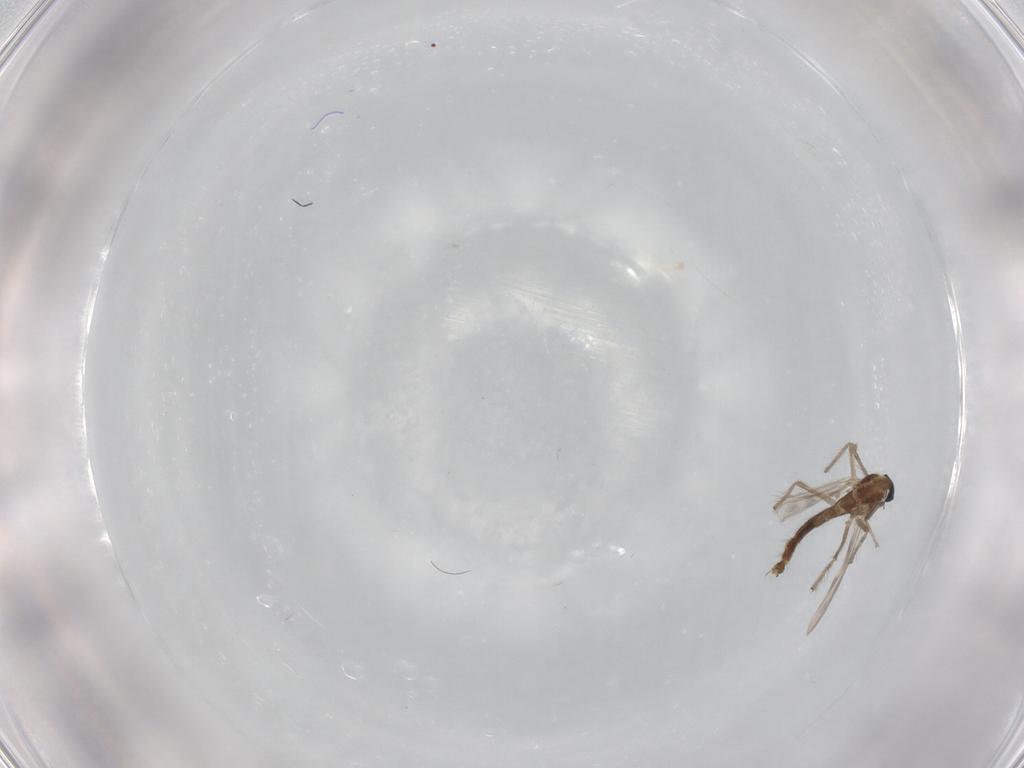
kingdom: Animalia
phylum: Arthropoda
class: Insecta
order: Diptera
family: Chironomidae
